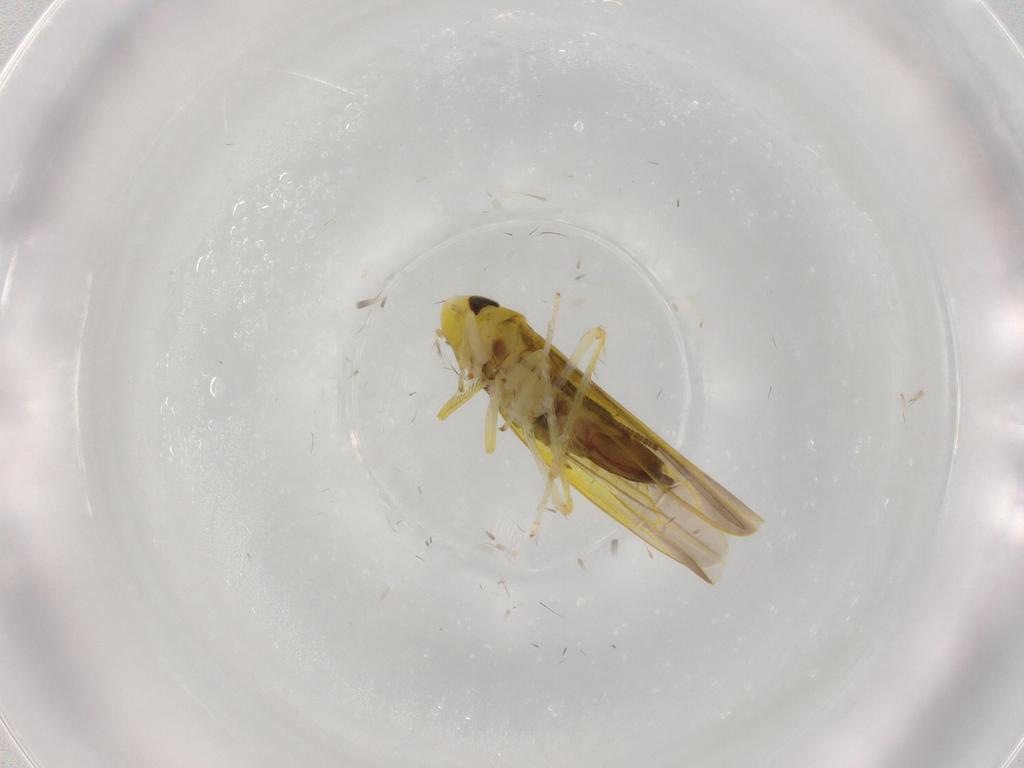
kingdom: Animalia
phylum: Arthropoda
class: Insecta
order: Hemiptera
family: Cicadellidae
